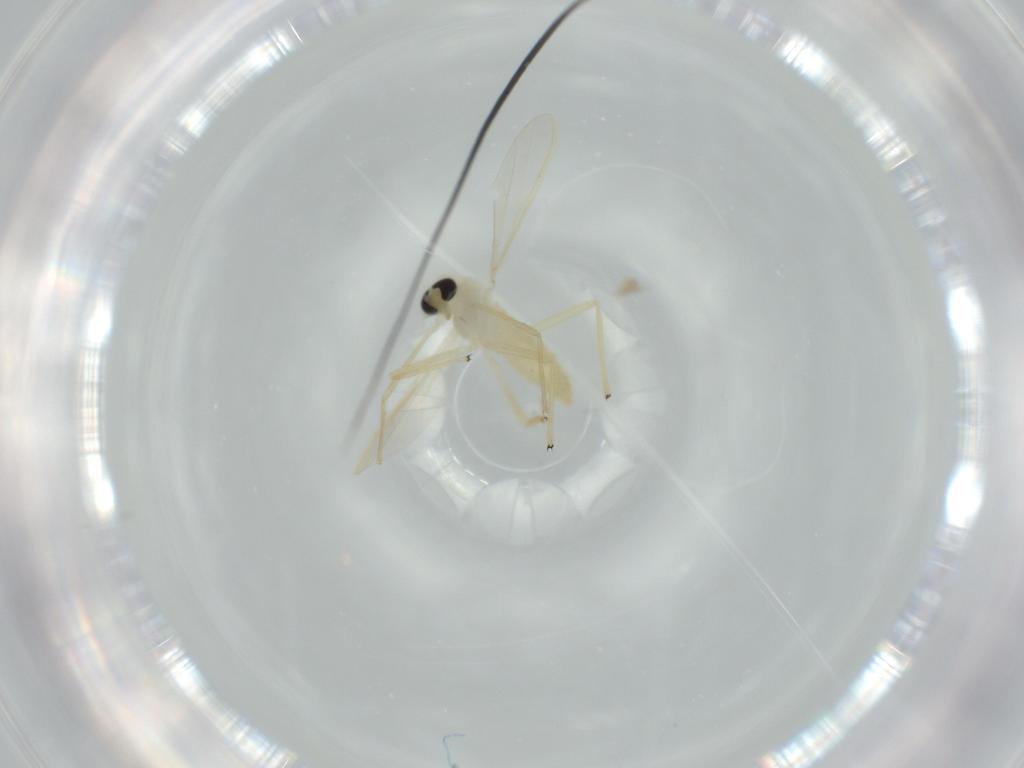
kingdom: Animalia
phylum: Arthropoda
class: Insecta
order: Diptera
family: Chironomidae
